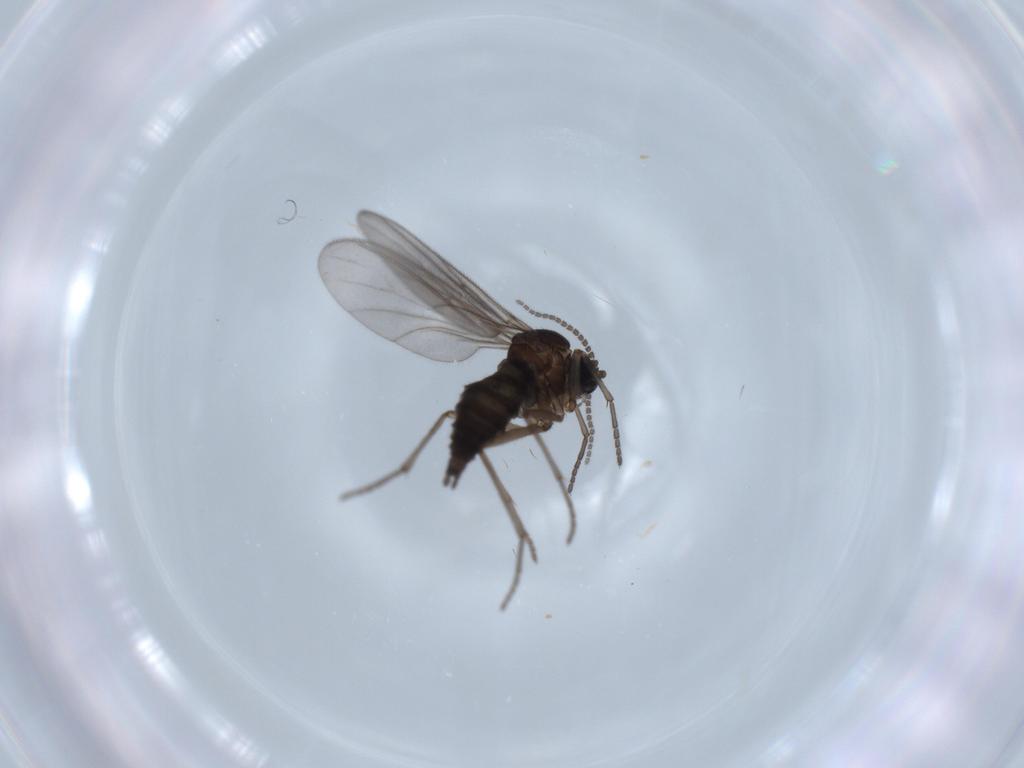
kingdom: Animalia
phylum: Arthropoda
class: Insecta
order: Diptera
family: Sciaridae
